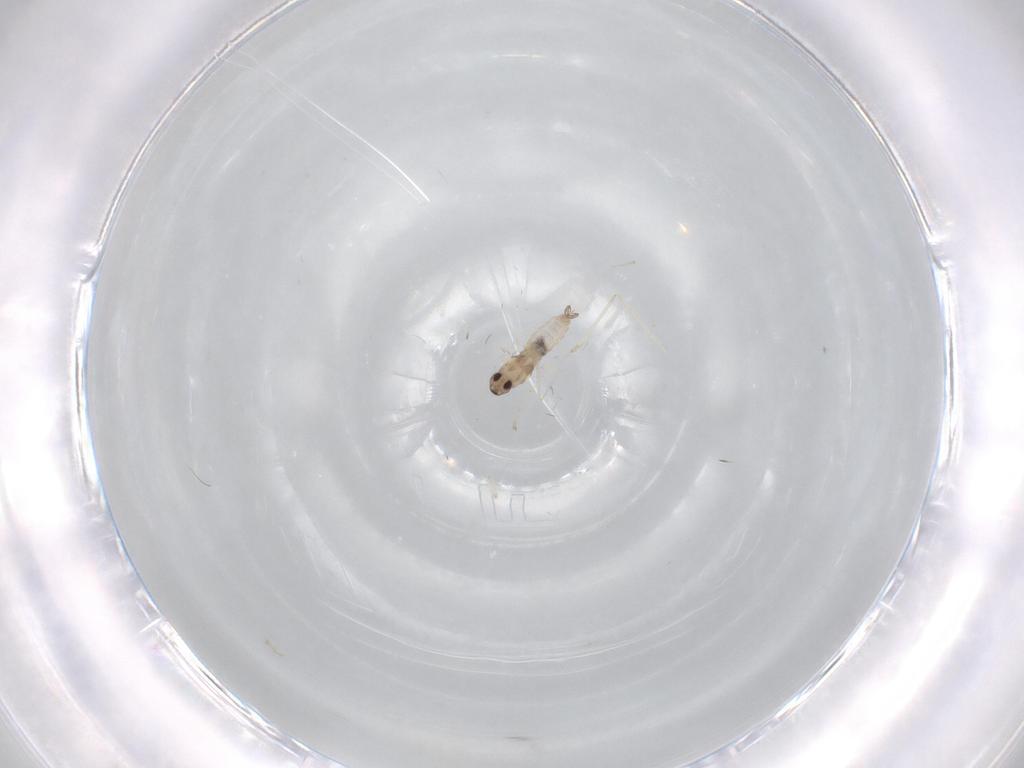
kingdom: Animalia
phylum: Arthropoda
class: Insecta
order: Diptera
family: Cecidomyiidae
